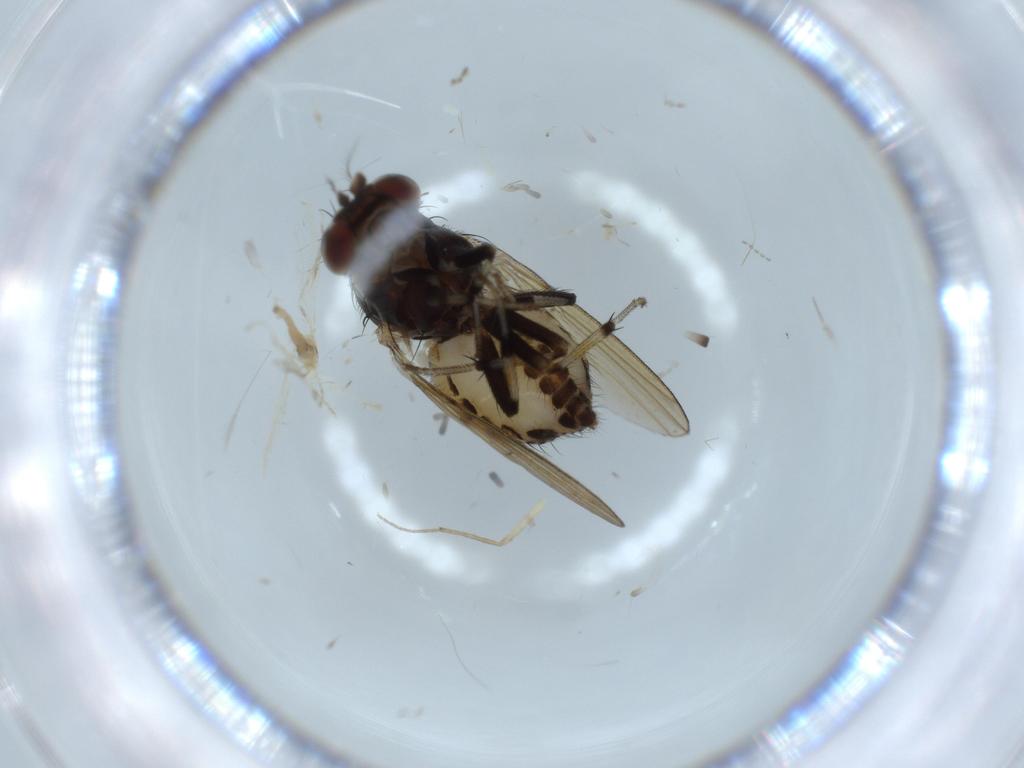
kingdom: Animalia
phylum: Arthropoda
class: Insecta
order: Diptera
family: Cecidomyiidae
